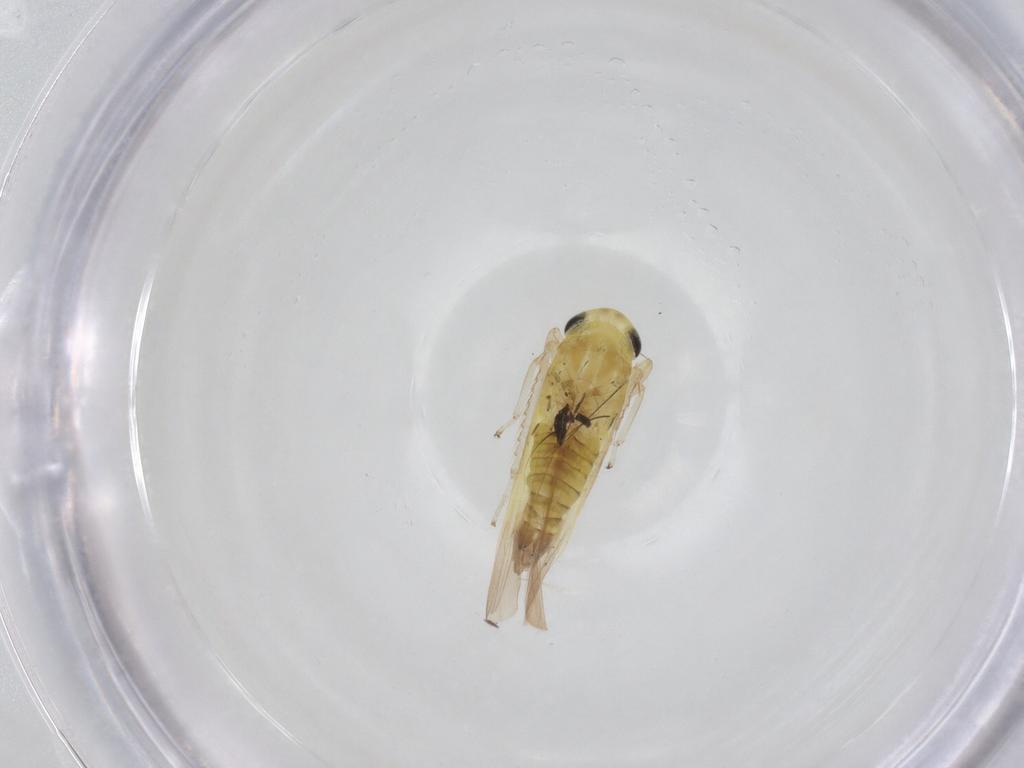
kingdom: Animalia
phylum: Arthropoda
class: Insecta
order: Hemiptera
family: Cicadellidae
